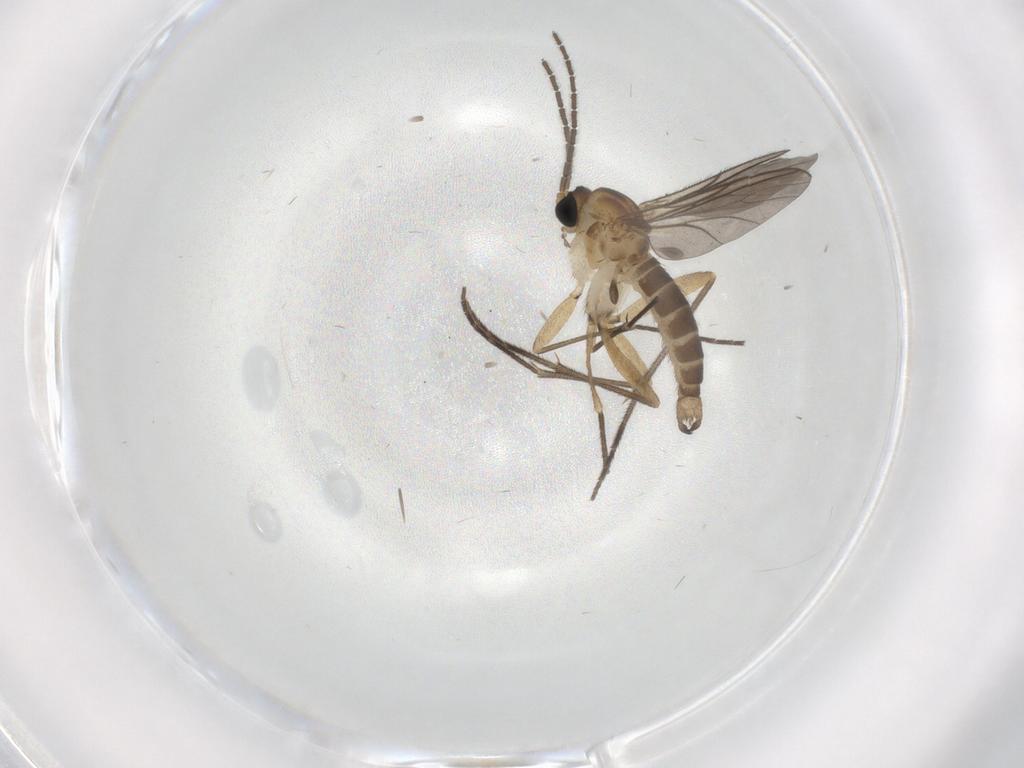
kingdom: Animalia
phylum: Arthropoda
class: Insecta
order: Diptera
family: Sciaridae
